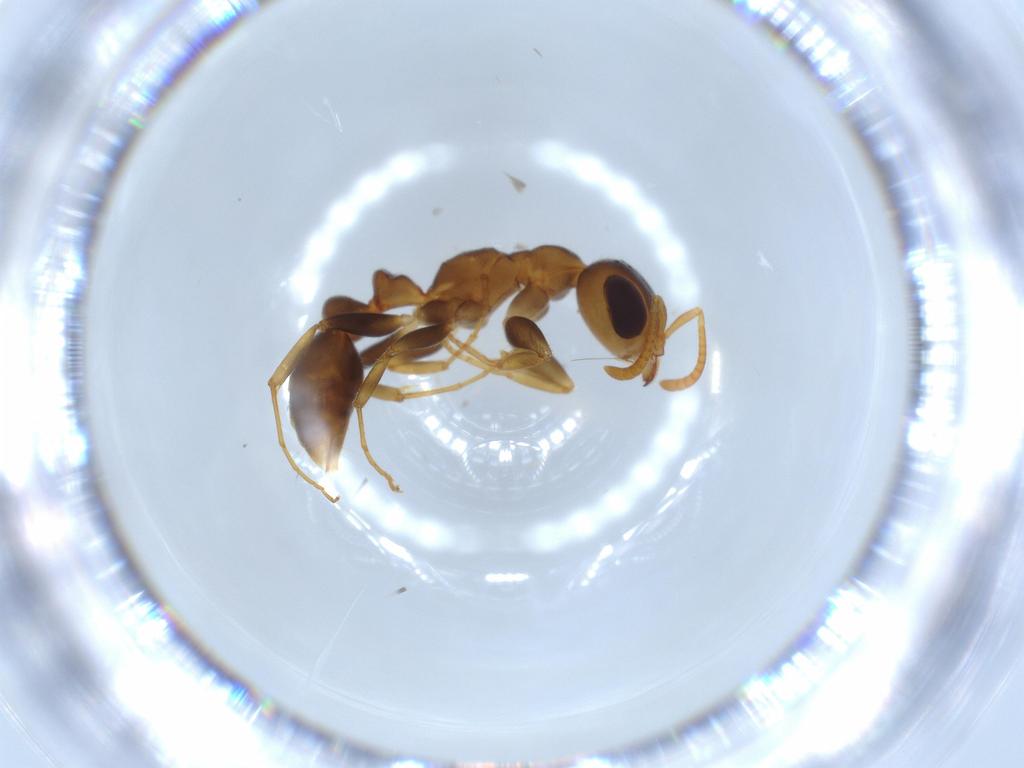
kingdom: Animalia
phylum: Arthropoda
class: Insecta
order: Hymenoptera
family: Formicidae
